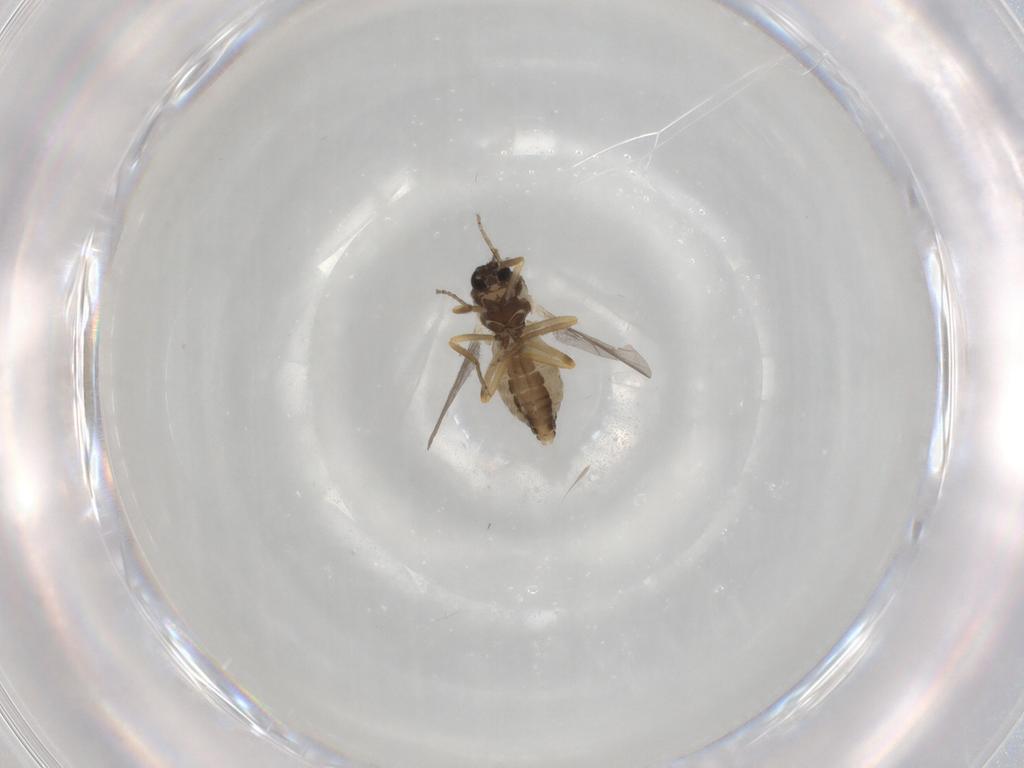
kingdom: Animalia
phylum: Arthropoda
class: Insecta
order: Diptera
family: Ceratopogonidae
